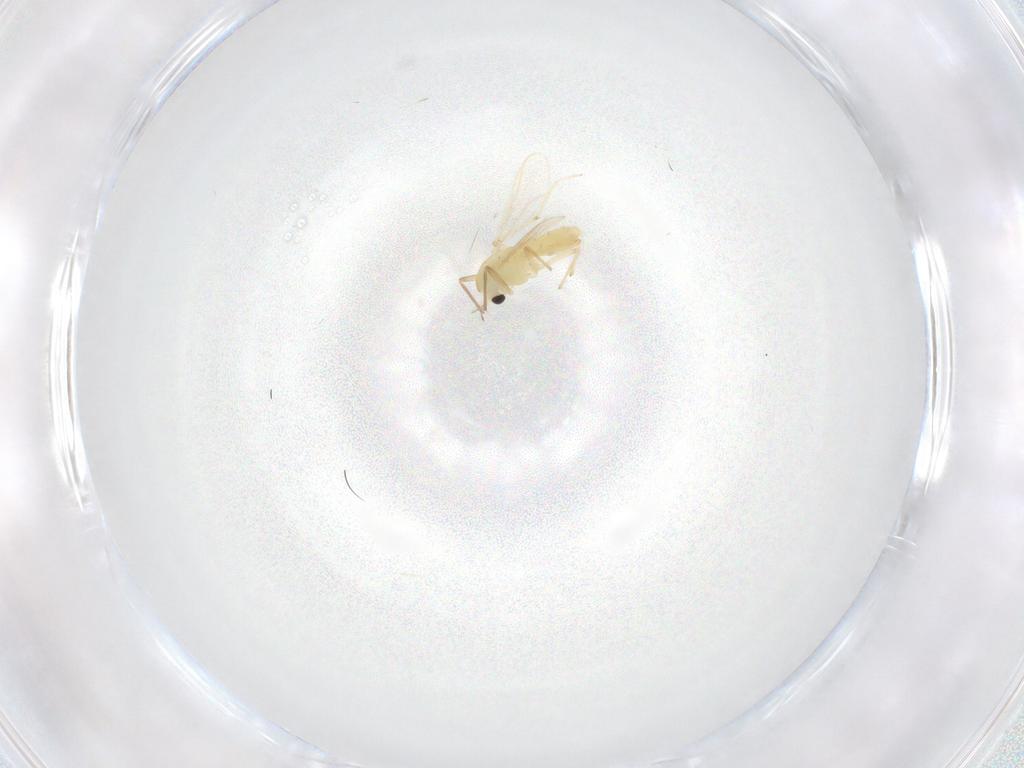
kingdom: Animalia
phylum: Arthropoda
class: Insecta
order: Diptera
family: Chironomidae
